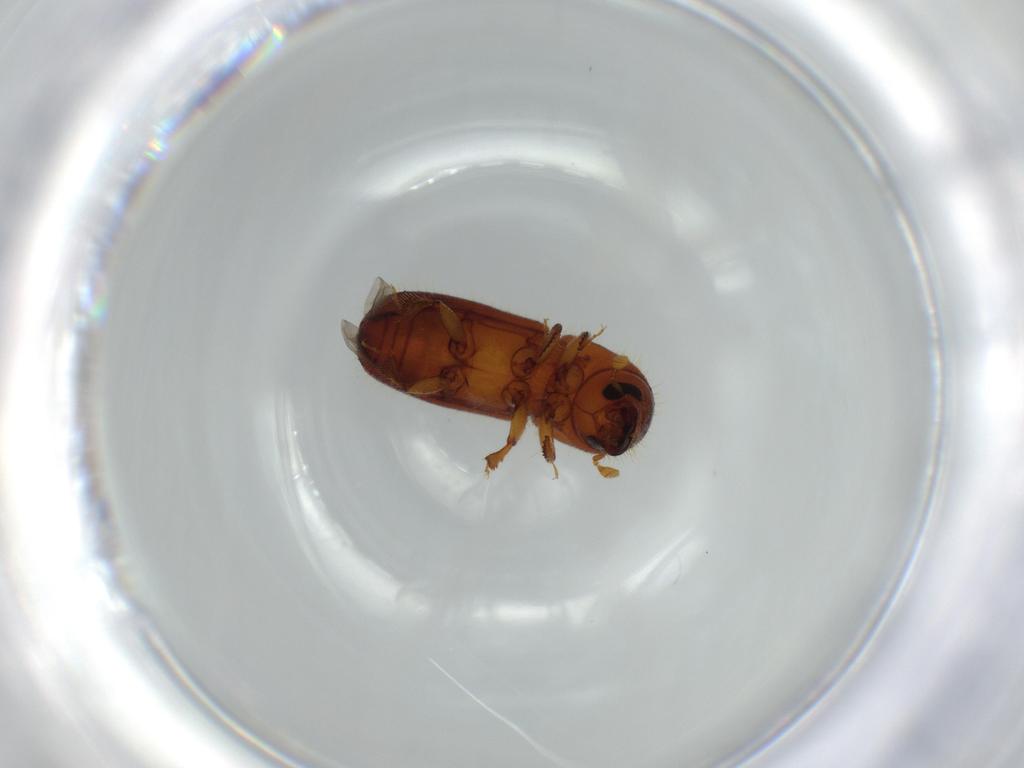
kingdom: Animalia
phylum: Arthropoda
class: Insecta
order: Coleoptera
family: Curculionidae
